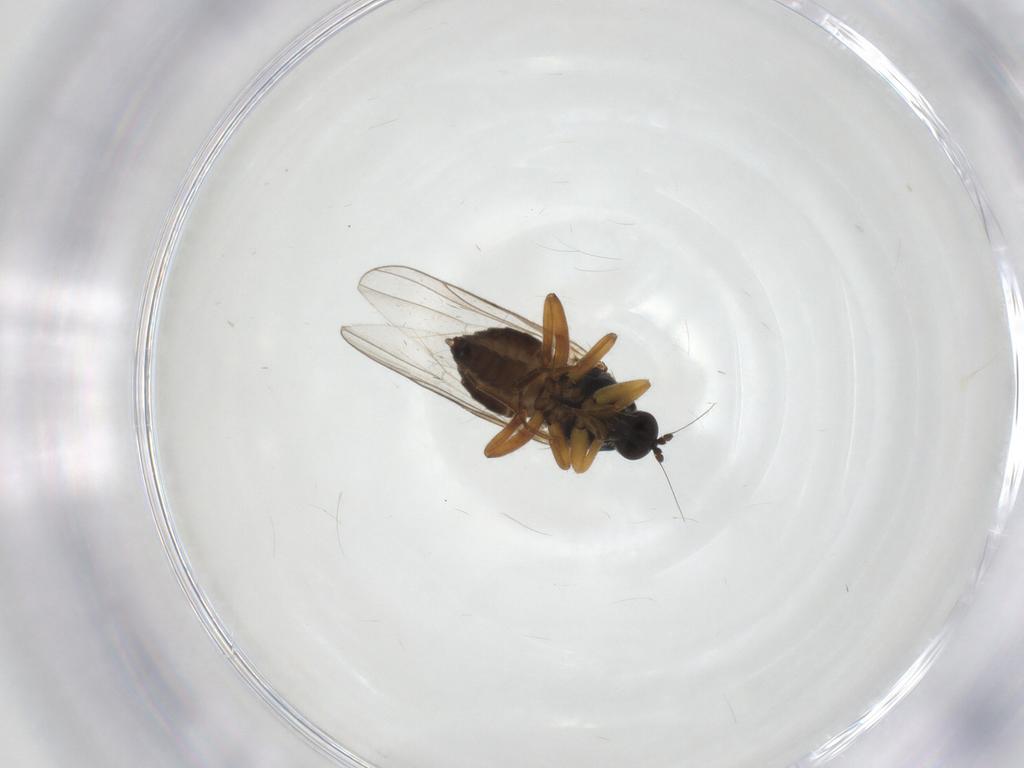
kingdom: Animalia
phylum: Arthropoda
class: Insecta
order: Diptera
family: Hybotidae
